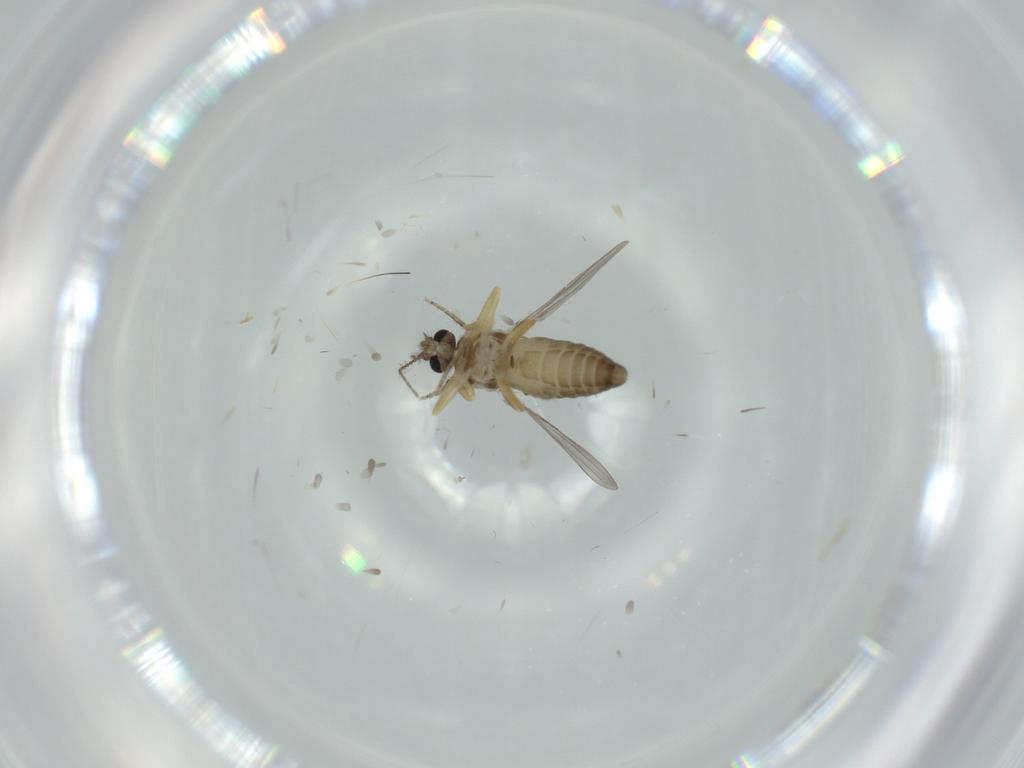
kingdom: Animalia
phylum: Arthropoda
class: Insecta
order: Diptera
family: Ceratopogonidae
